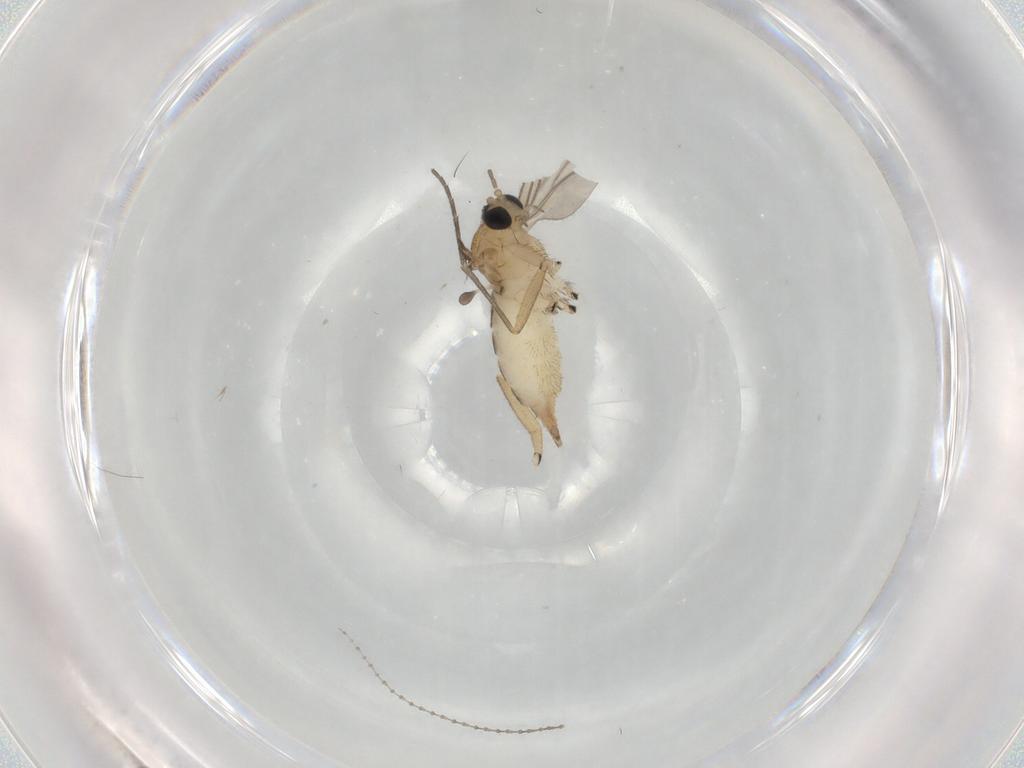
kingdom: Animalia
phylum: Arthropoda
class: Insecta
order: Diptera
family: Sciaridae
